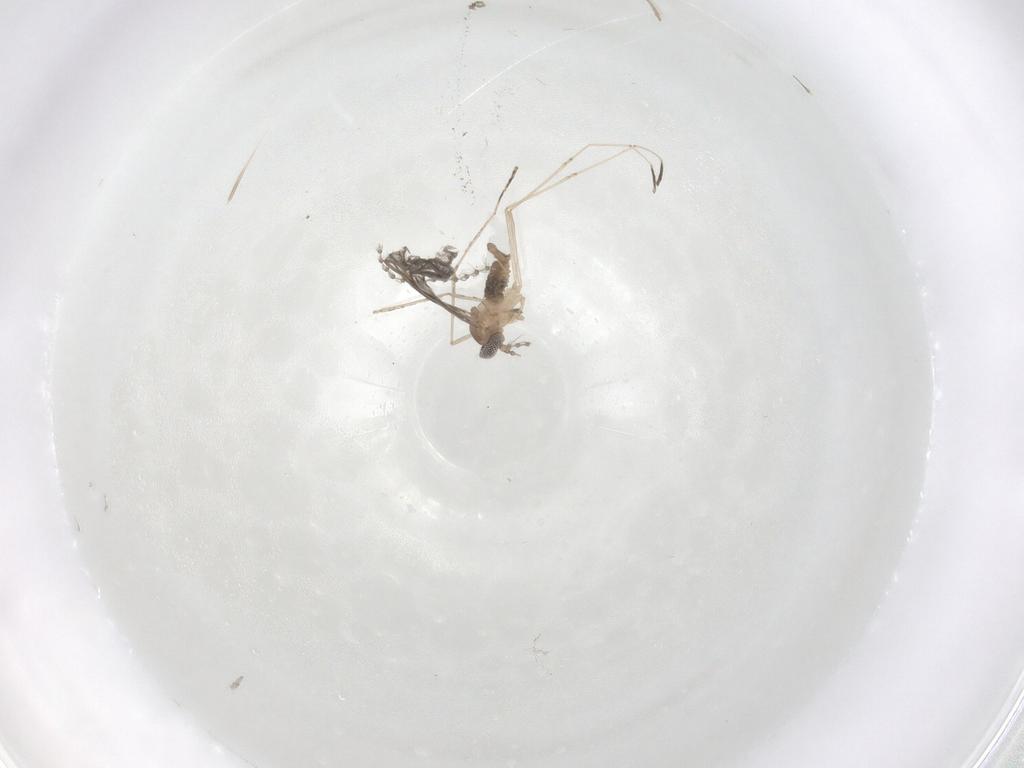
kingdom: Animalia
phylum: Arthropoda
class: Insecta
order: Diptera
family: Cecidomyiidae
